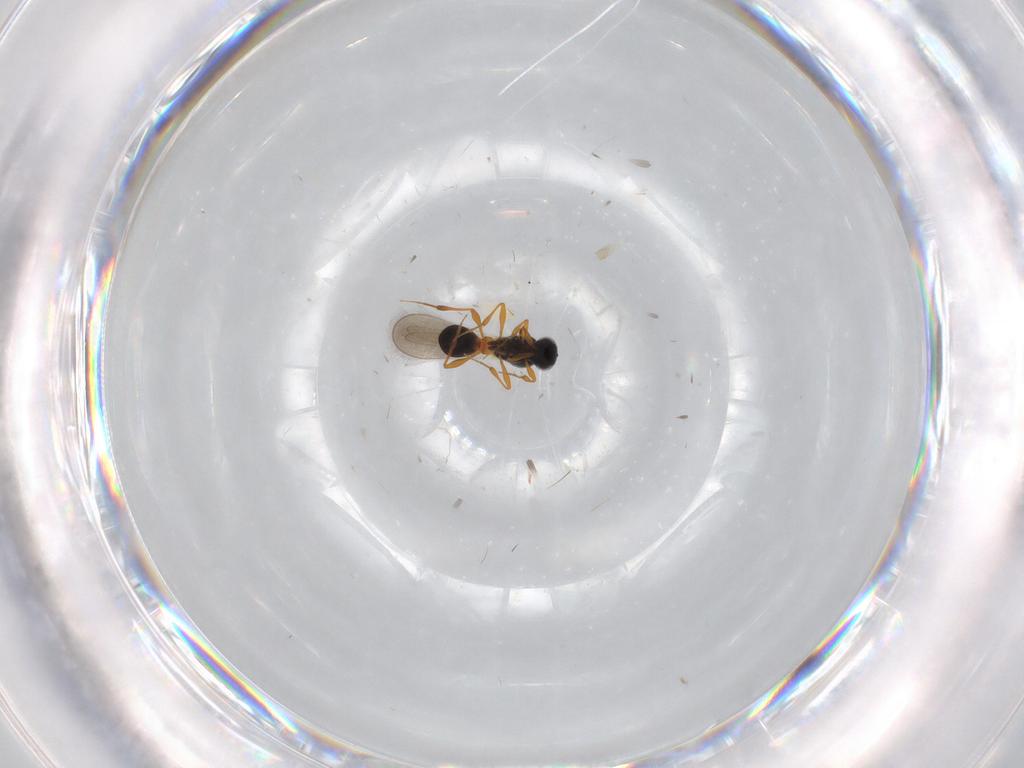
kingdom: Animalia
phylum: Arthropoda
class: Insecta
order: Hymenoptera
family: Platygastridae
